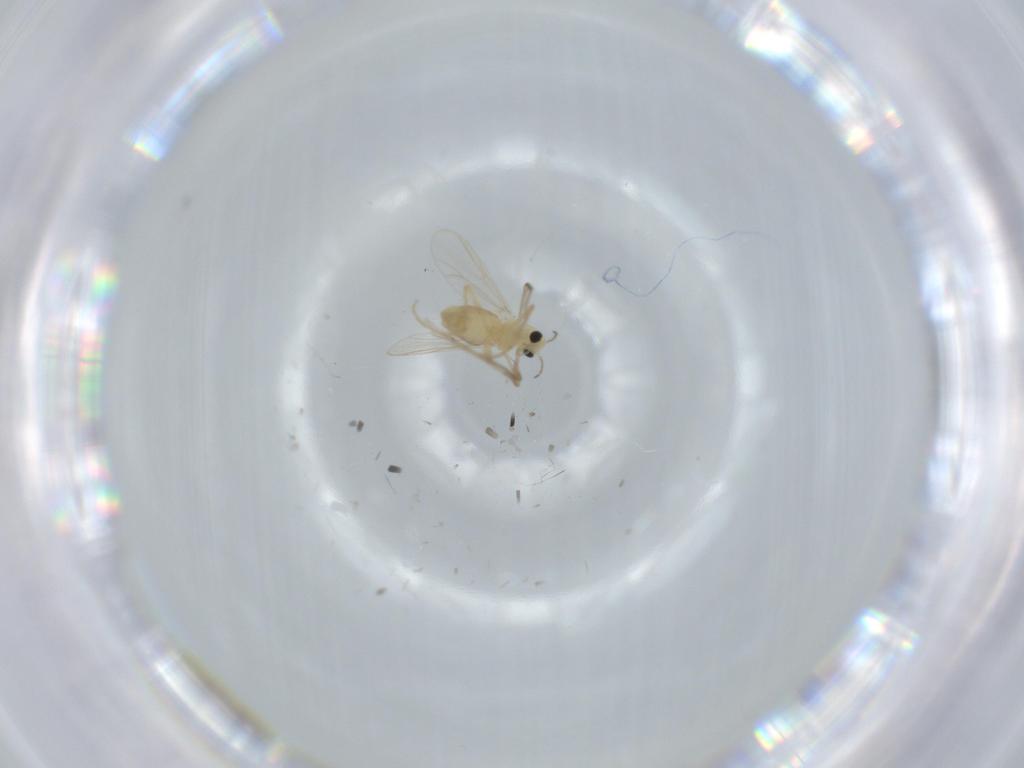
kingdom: Animalia
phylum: Arthropoda
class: Insecta
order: Diptera
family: Chironomidae
